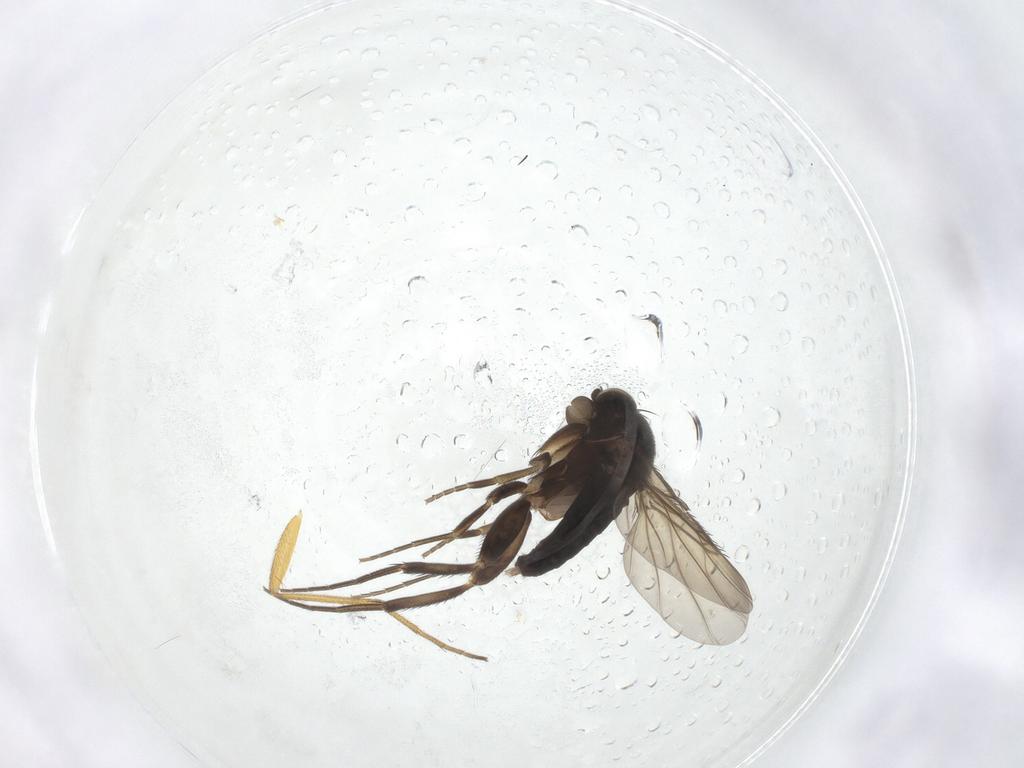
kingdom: Animalia
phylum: Arthropoda
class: Insecta
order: Diptera
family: Phoridae
